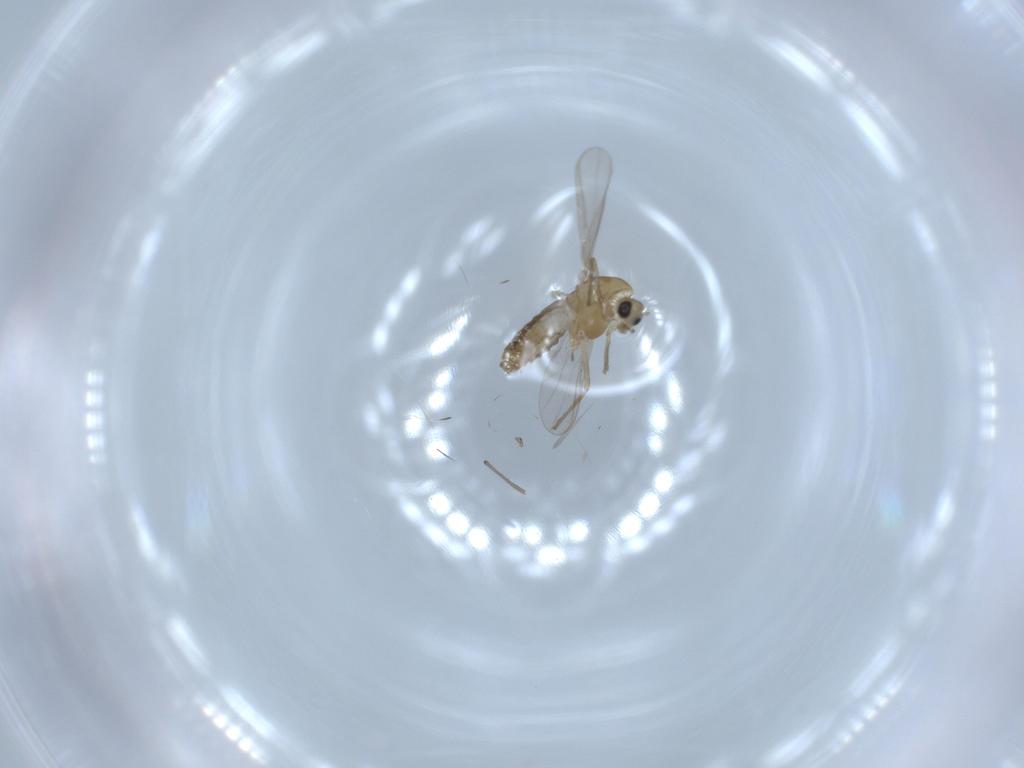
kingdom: Animalia
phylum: Arthropoda
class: Insecta
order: Diptera
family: Chironomidae
